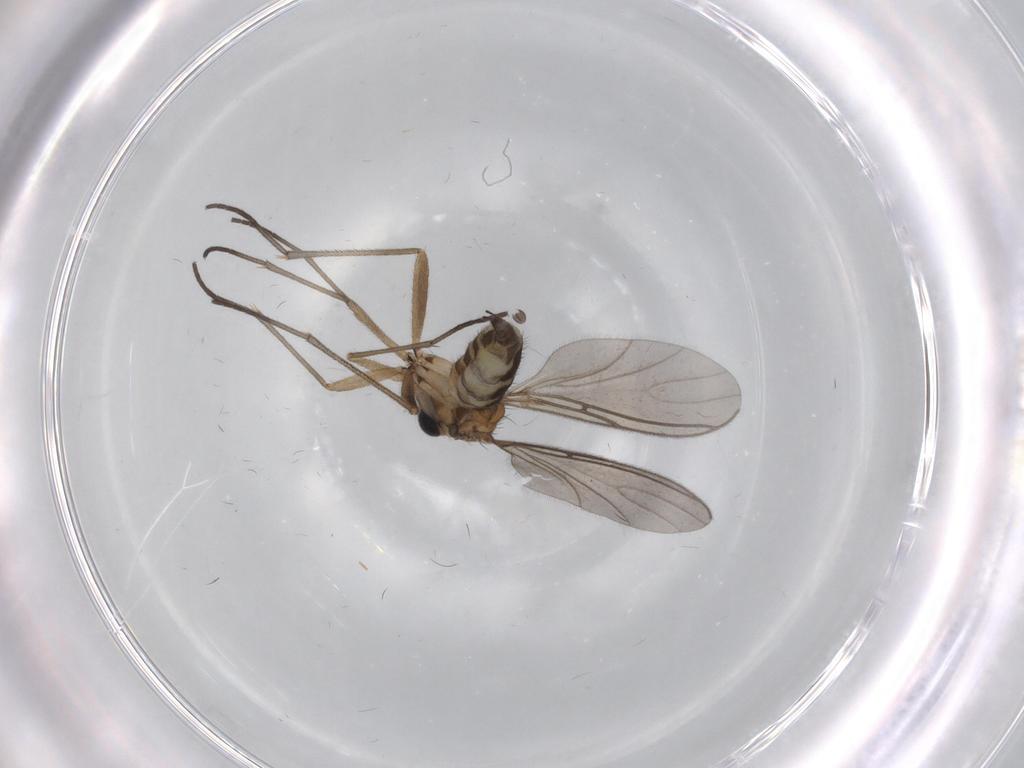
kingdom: Animalia
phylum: Arthropoda
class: Insecta
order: Diptera
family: Sciaridae
